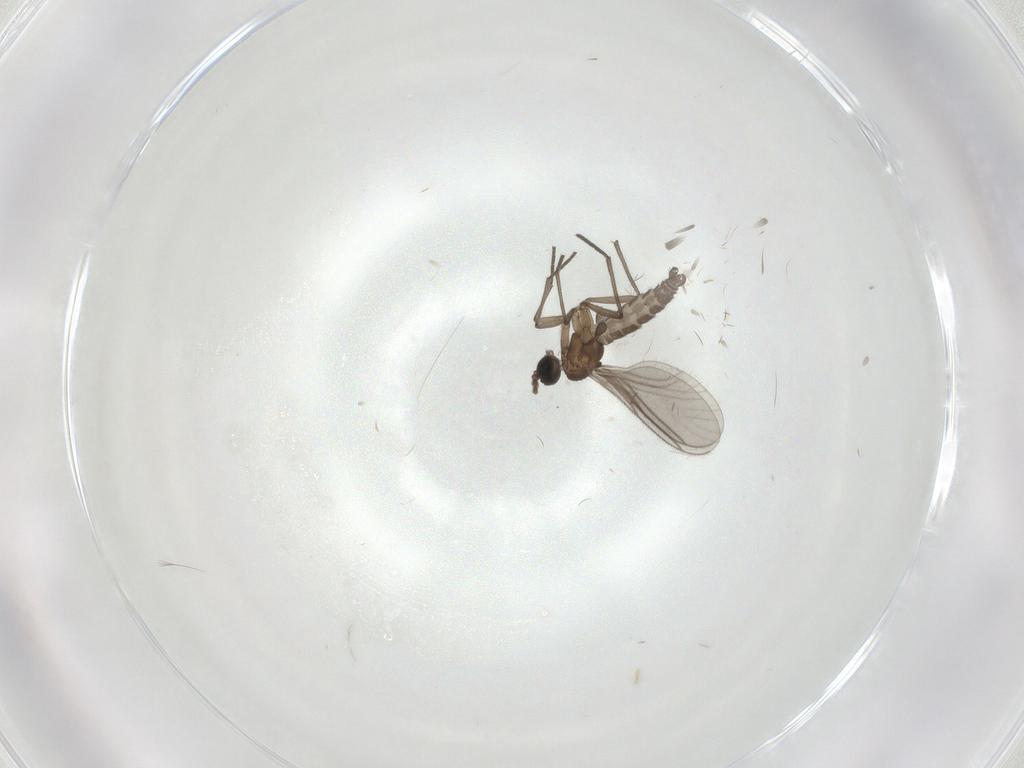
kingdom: Animalia
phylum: Arthropoda
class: Insecta
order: Diptera
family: Sciaridae
